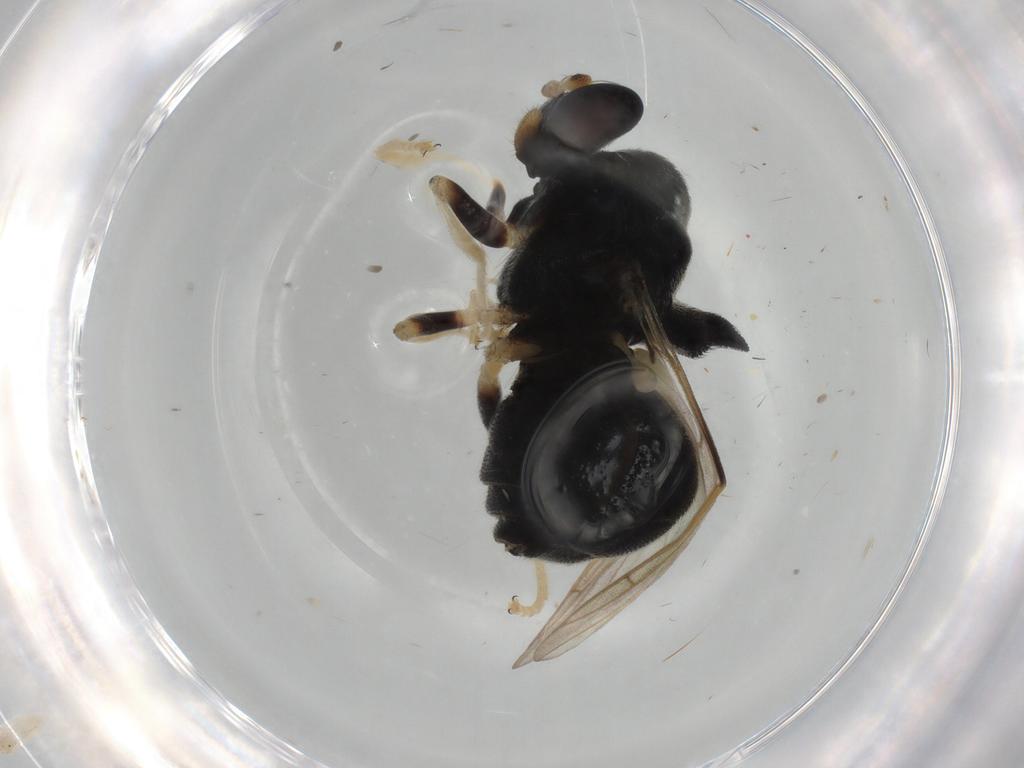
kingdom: Animalia
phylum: Arthropoda
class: Insecta
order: Diptera
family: Stratiomyidae
